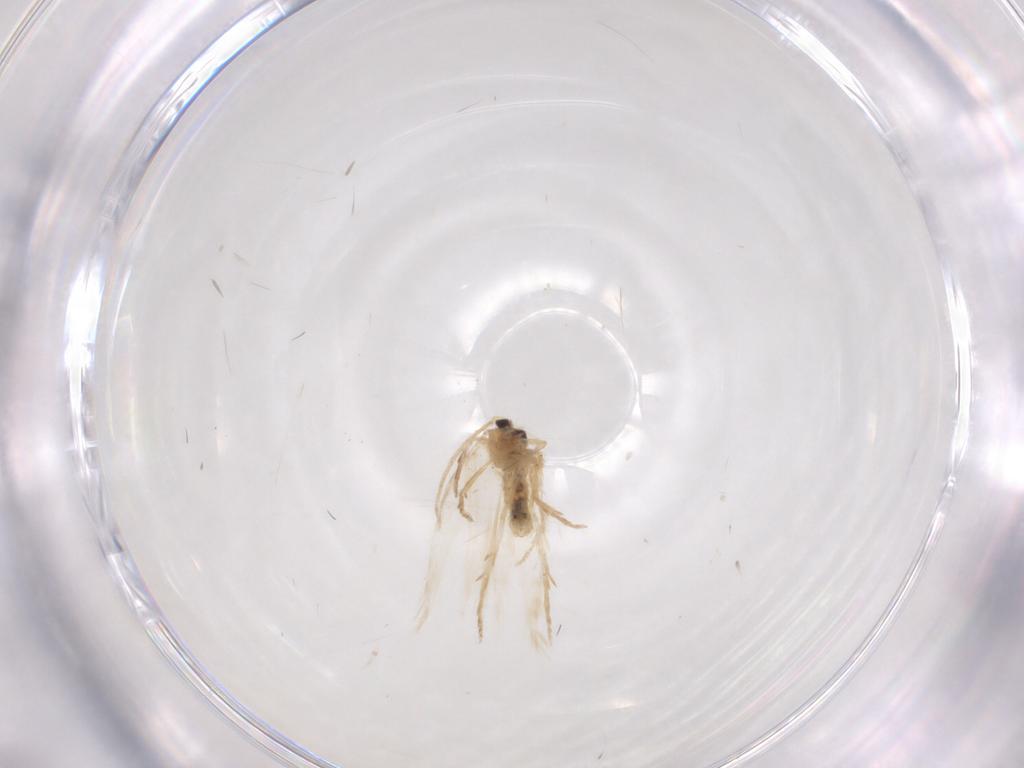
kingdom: Animalia
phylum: Arthropoda
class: Insecta
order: Lepidoptera
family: Nepticulidae
